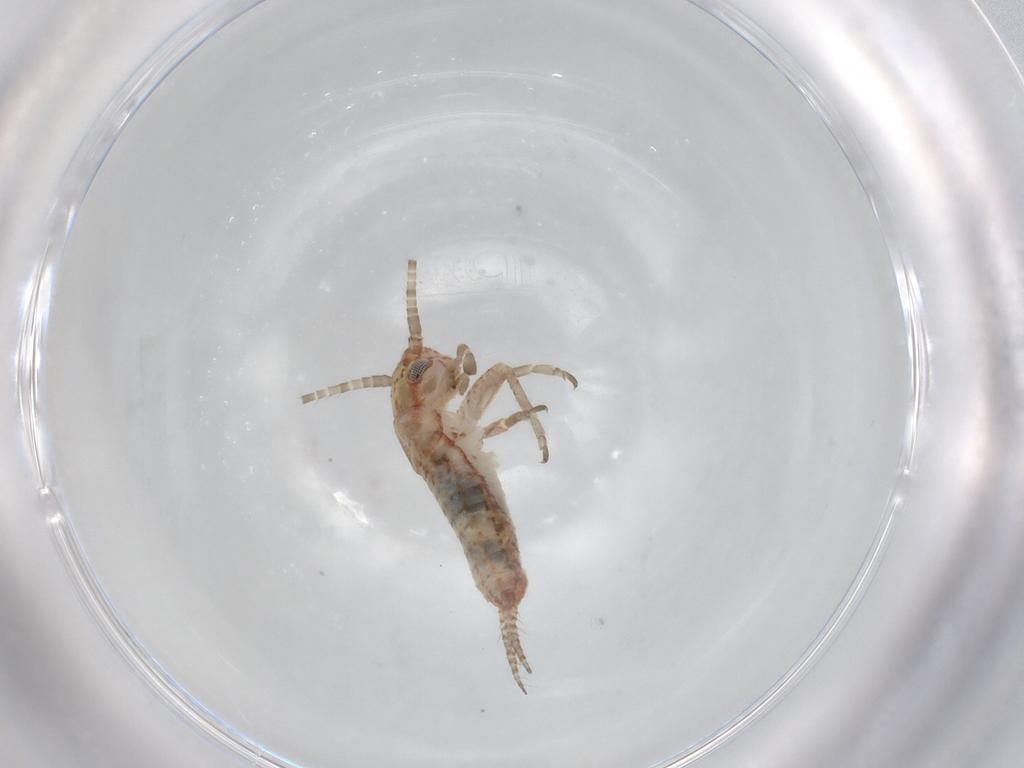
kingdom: Animalia
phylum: Arthropoda
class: Insecta
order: Orthoptera
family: Mogoplistidae
